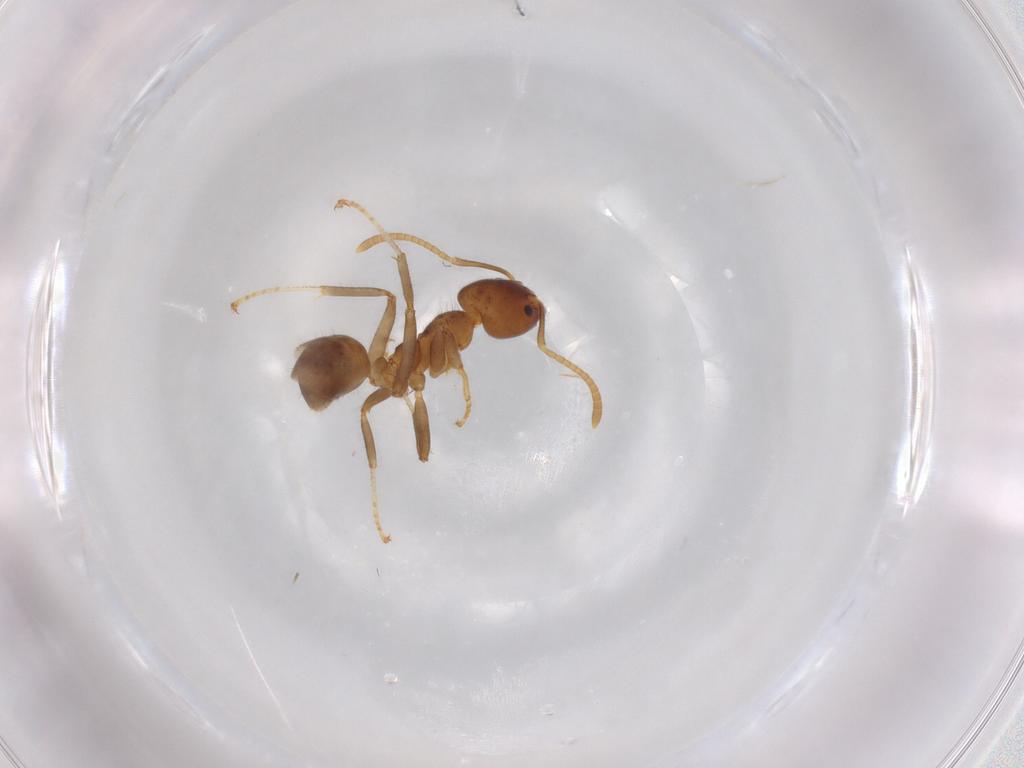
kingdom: Animalia
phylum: Arthropoda
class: Insecta
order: Hymenoptera
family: Formicidae
